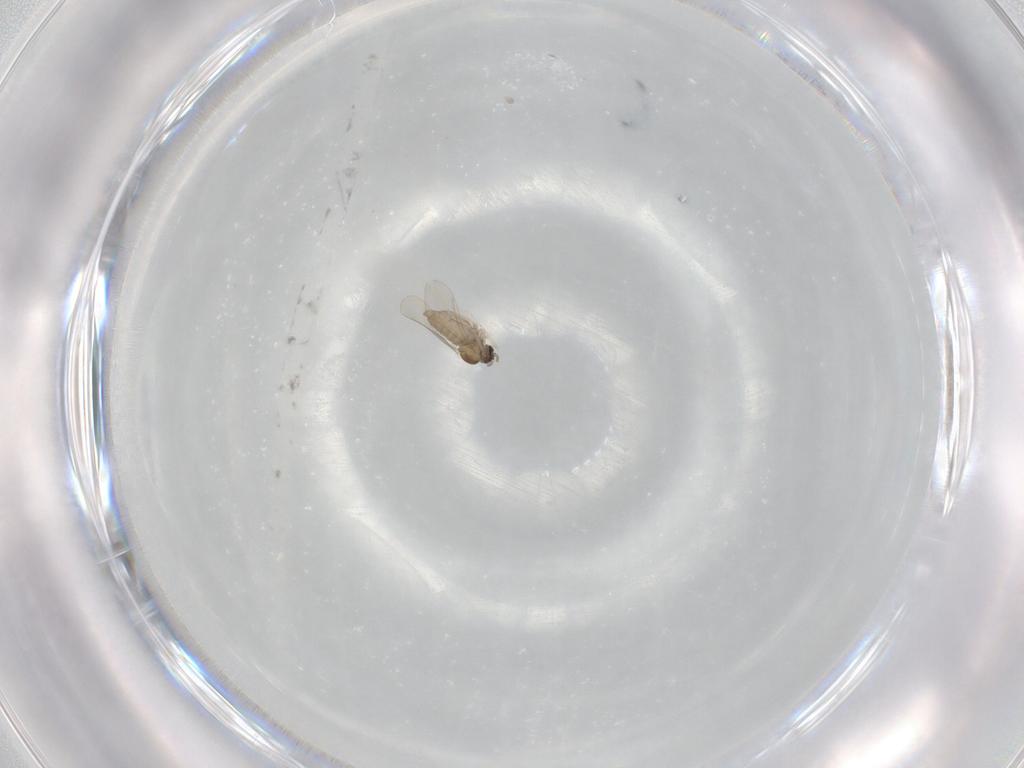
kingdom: Animalia
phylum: Arthropoda
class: Insecta
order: Diptera
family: Cecidomyiidae
